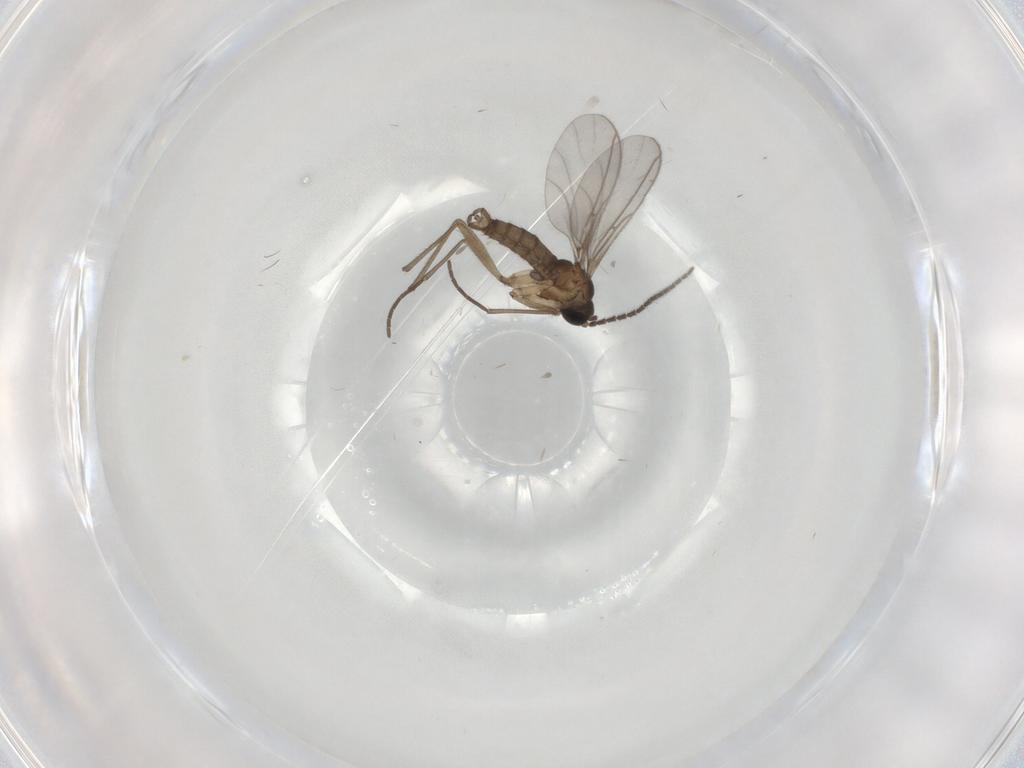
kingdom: Animalia
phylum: Arthropoda
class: Insecta
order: Diptera
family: Sciaridae
